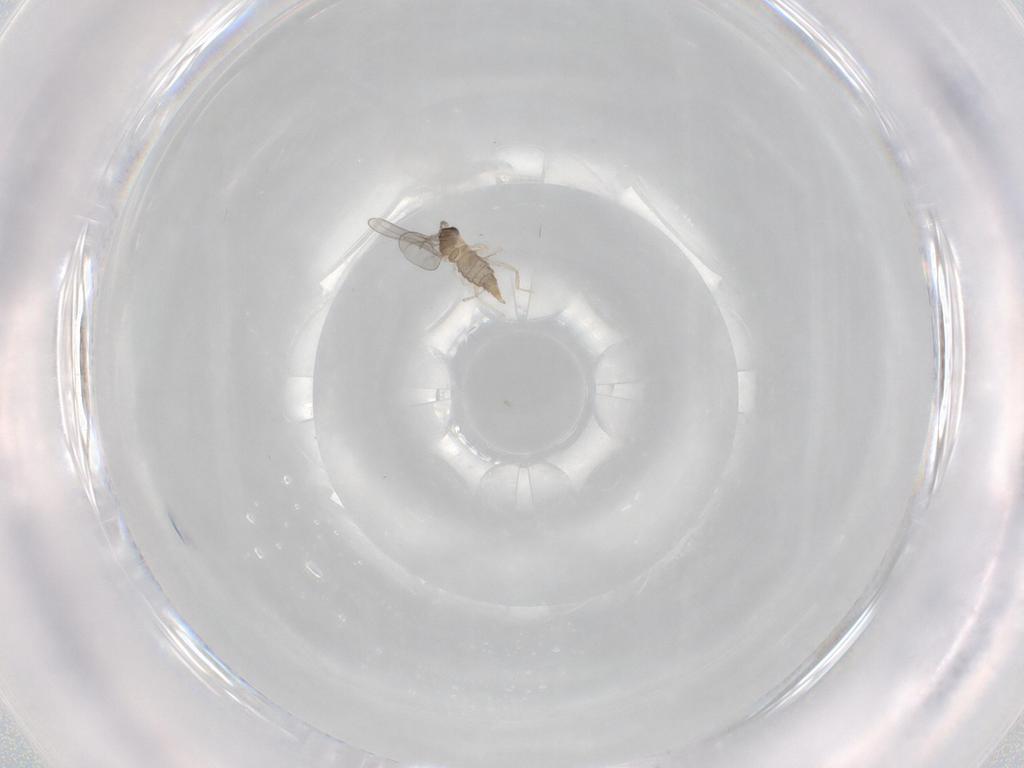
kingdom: Animalia
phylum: Arthropoda
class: Insecta
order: Diptera
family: Cecidomyiidae
